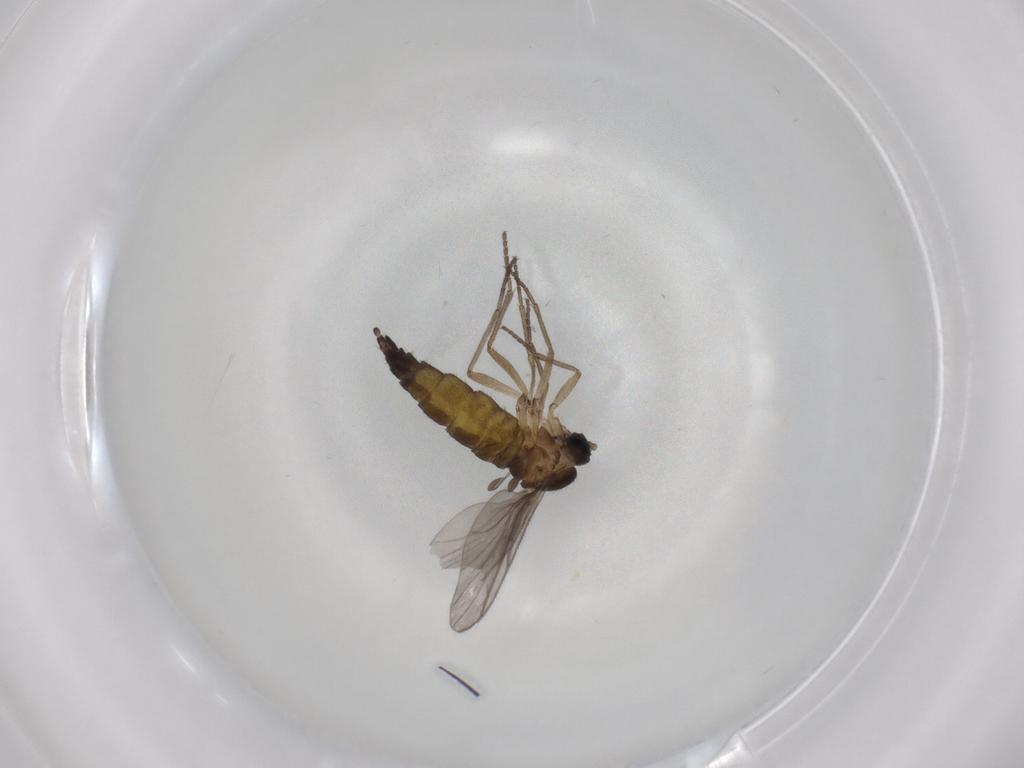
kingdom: Animalia
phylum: Arthropoda
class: Insecta
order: Diptera
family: Sciaridae
